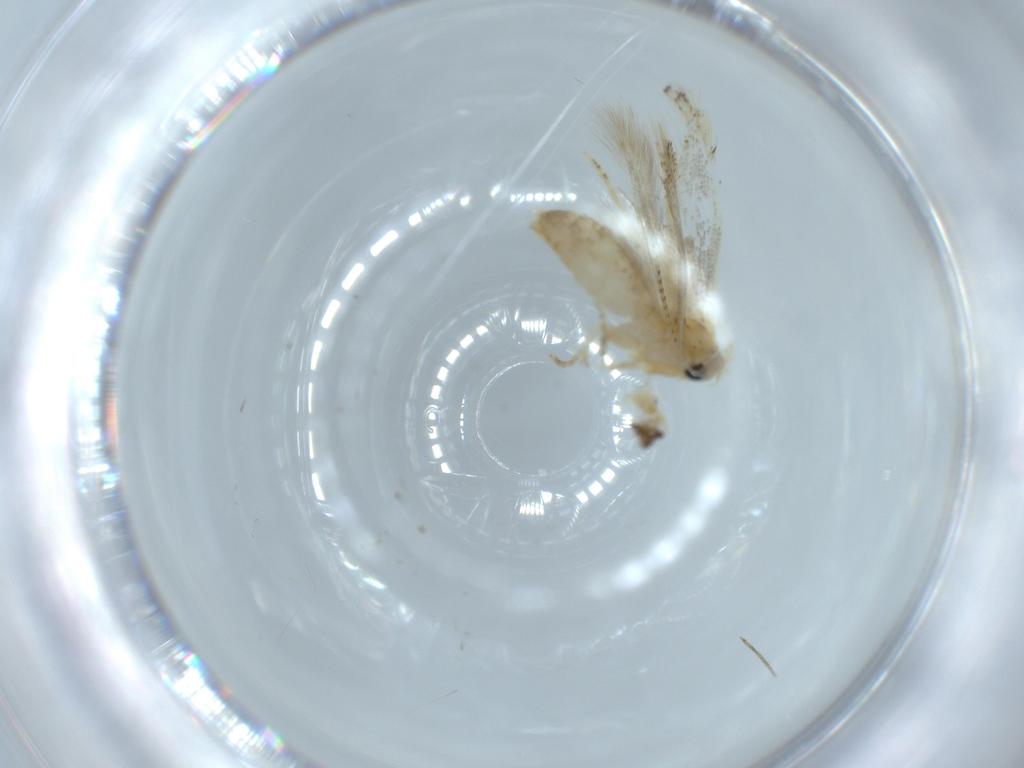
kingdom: Animalia
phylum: Arthropoda
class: Insecta
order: Lepidoptera
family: Bucculatricidae
